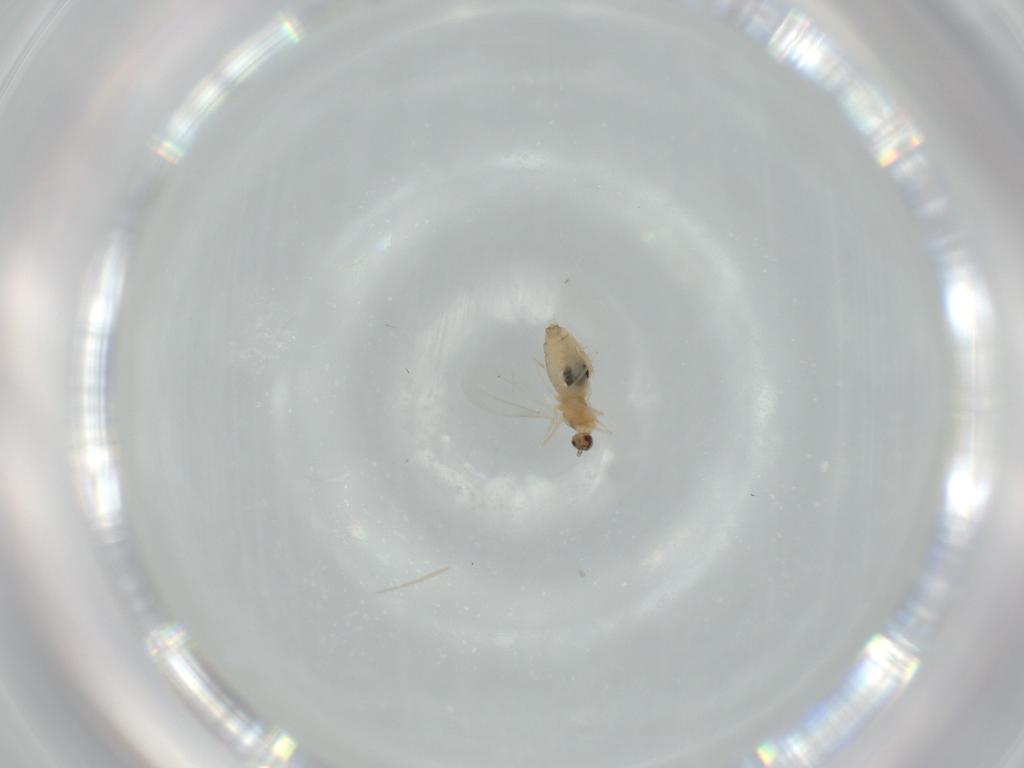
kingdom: Animalia
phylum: Arthropoda
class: Insecta
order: Diptera
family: Cecidomyiidae
